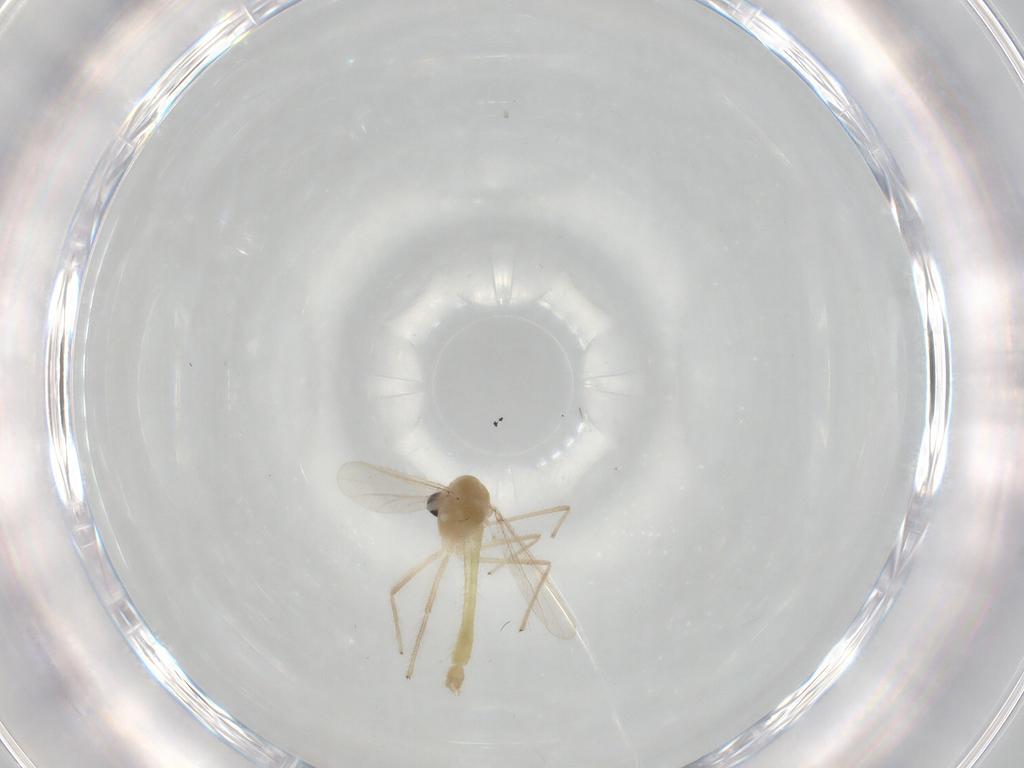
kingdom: Animalia
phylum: Arthropoda
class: Insecta
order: Diptera
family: Chironomidae
